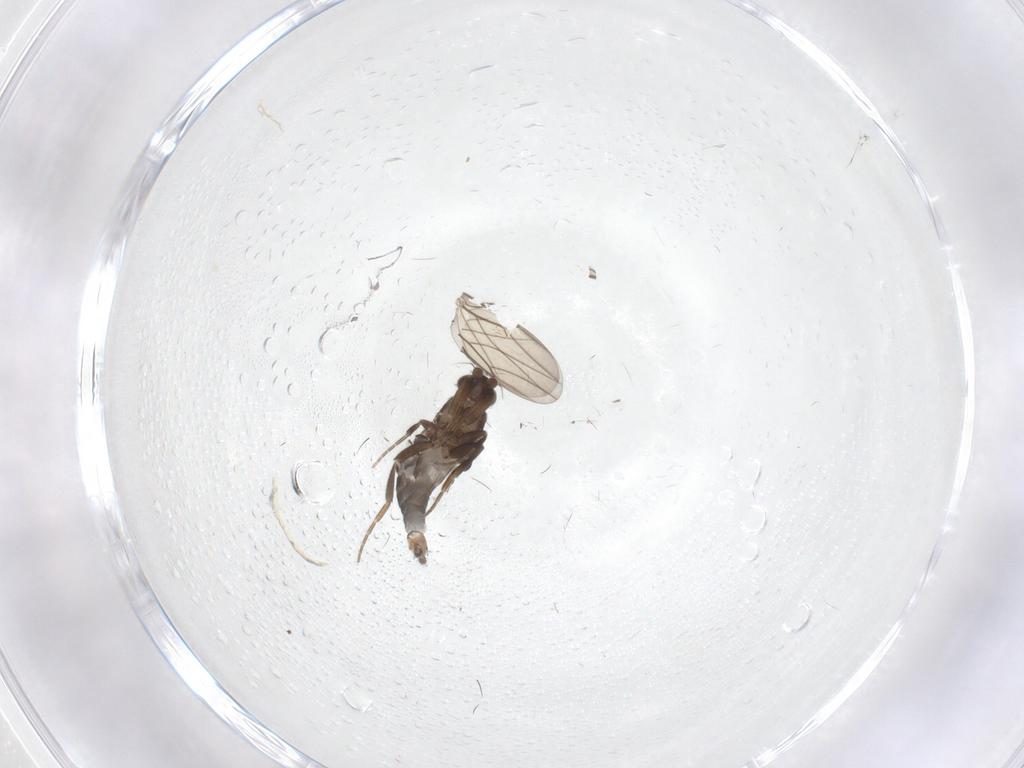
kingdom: Animalia
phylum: Arthropoda
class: Insecta
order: Diptera
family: Phoridae
